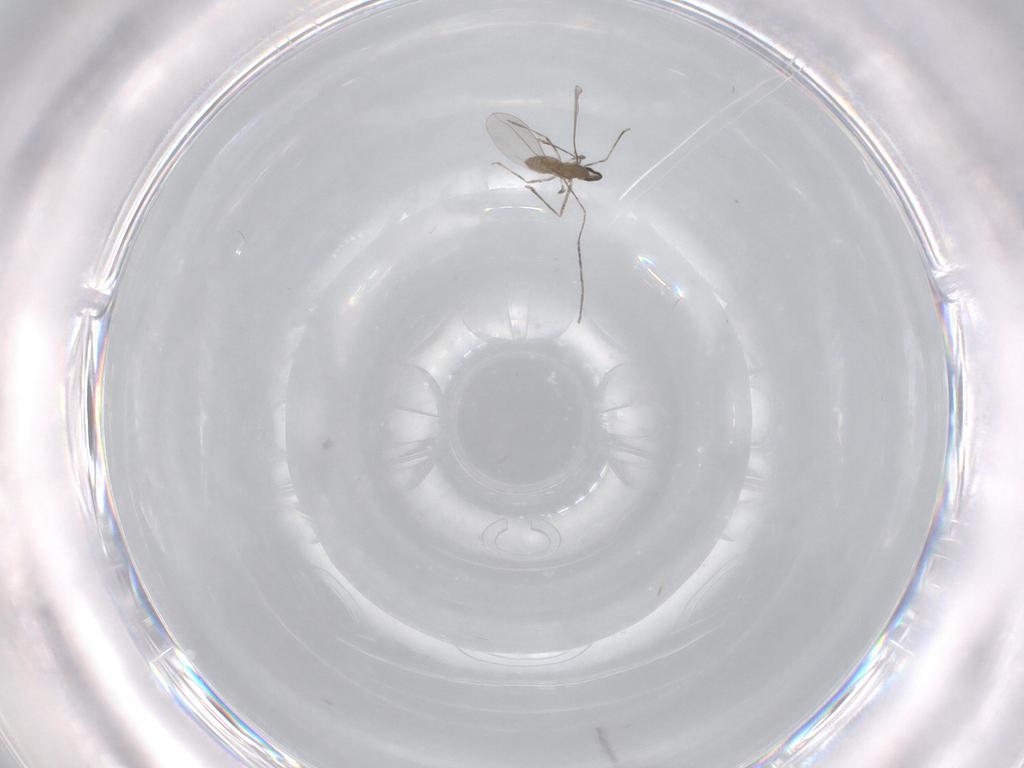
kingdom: Animalia
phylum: Arthropoda
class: Insecta
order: Diptera
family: Cecidomyiidae
